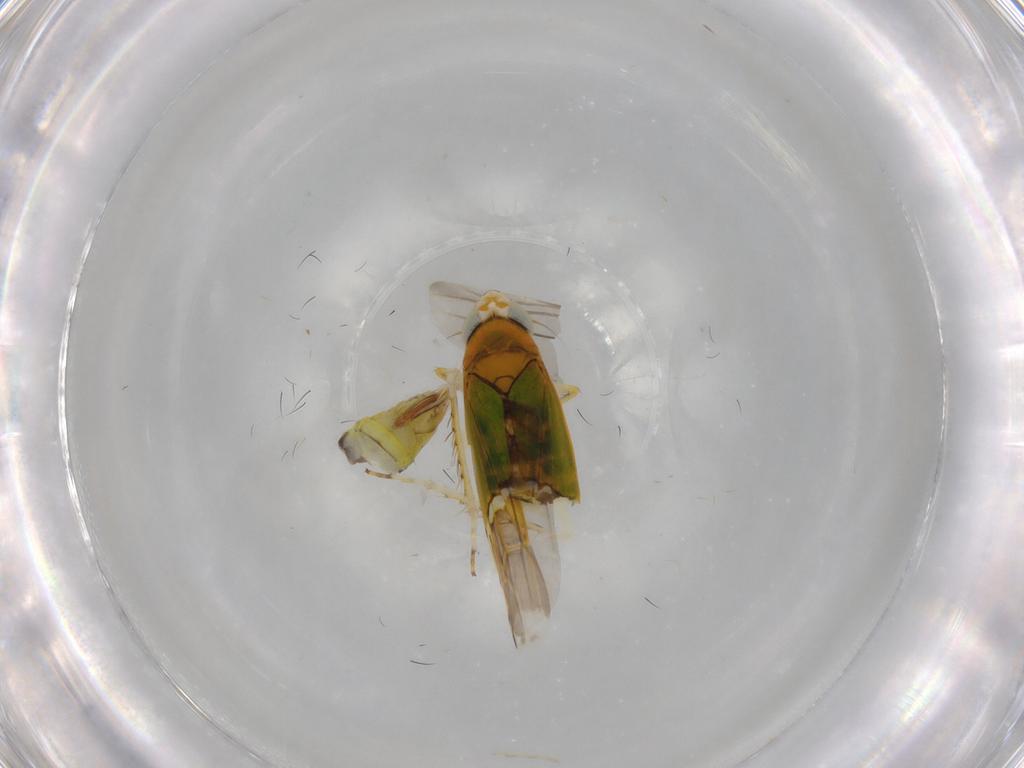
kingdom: Animalia
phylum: Arthropoda
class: Insecta
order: Hemiptera
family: Cicadellidae
